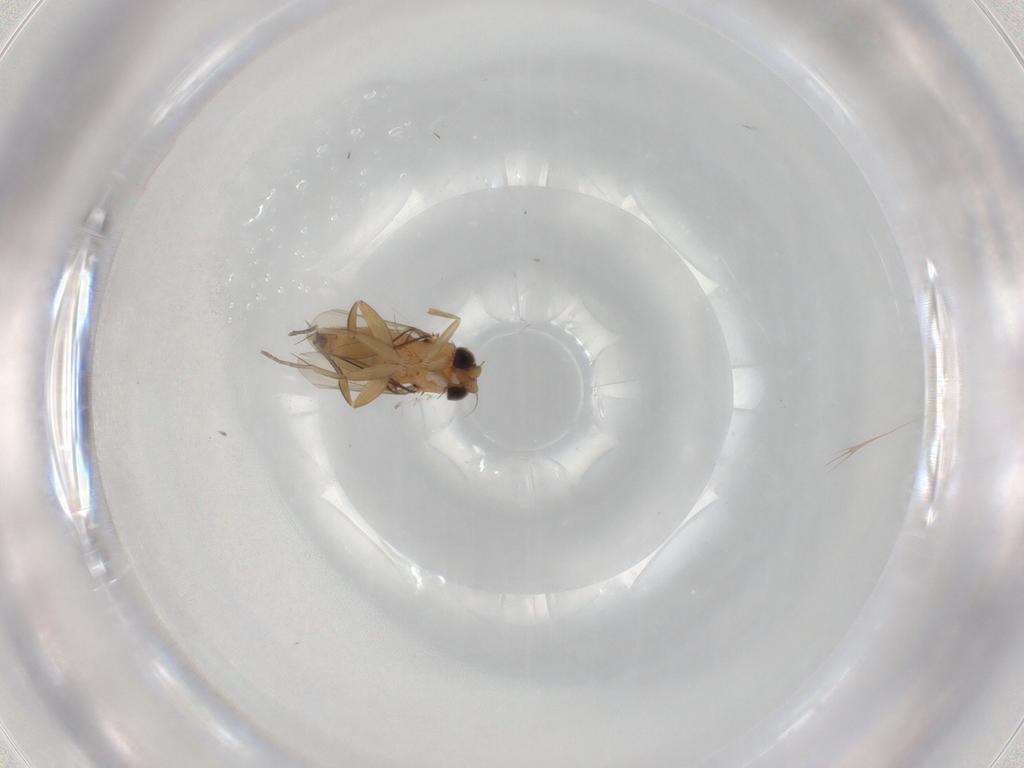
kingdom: Animalia
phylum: Arthropoda
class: Insecta
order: Diptera
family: Phoridae
